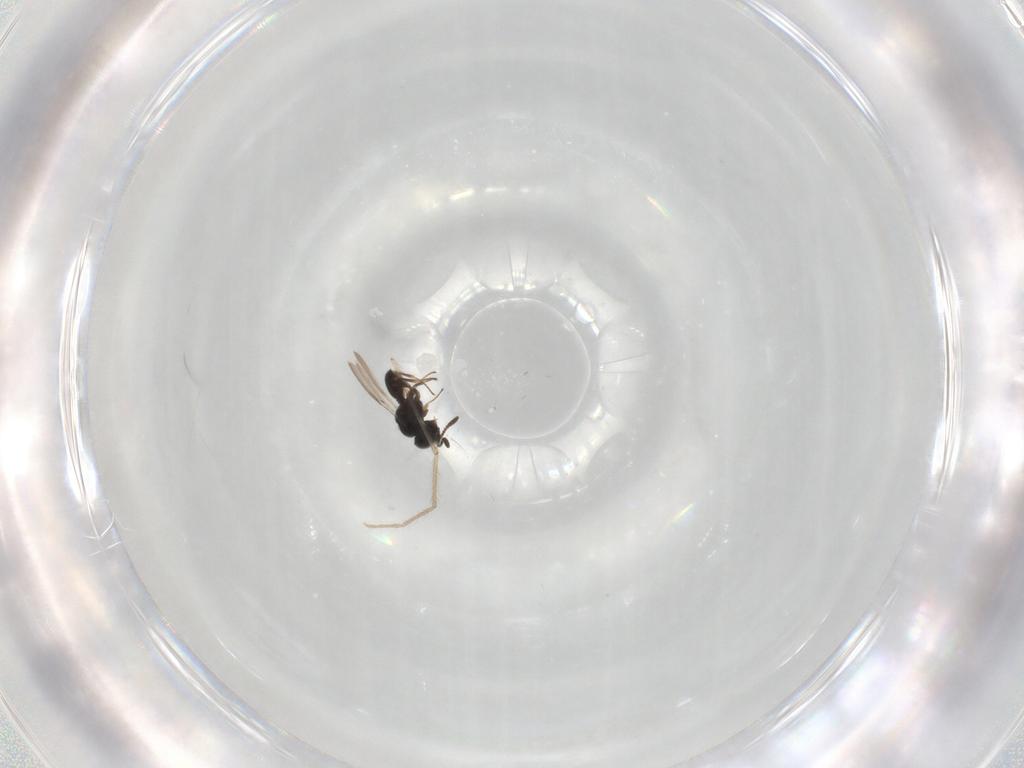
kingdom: Animalia
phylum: Arthropoda
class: Insecta
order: Hymenoptera
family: Scelionidae
